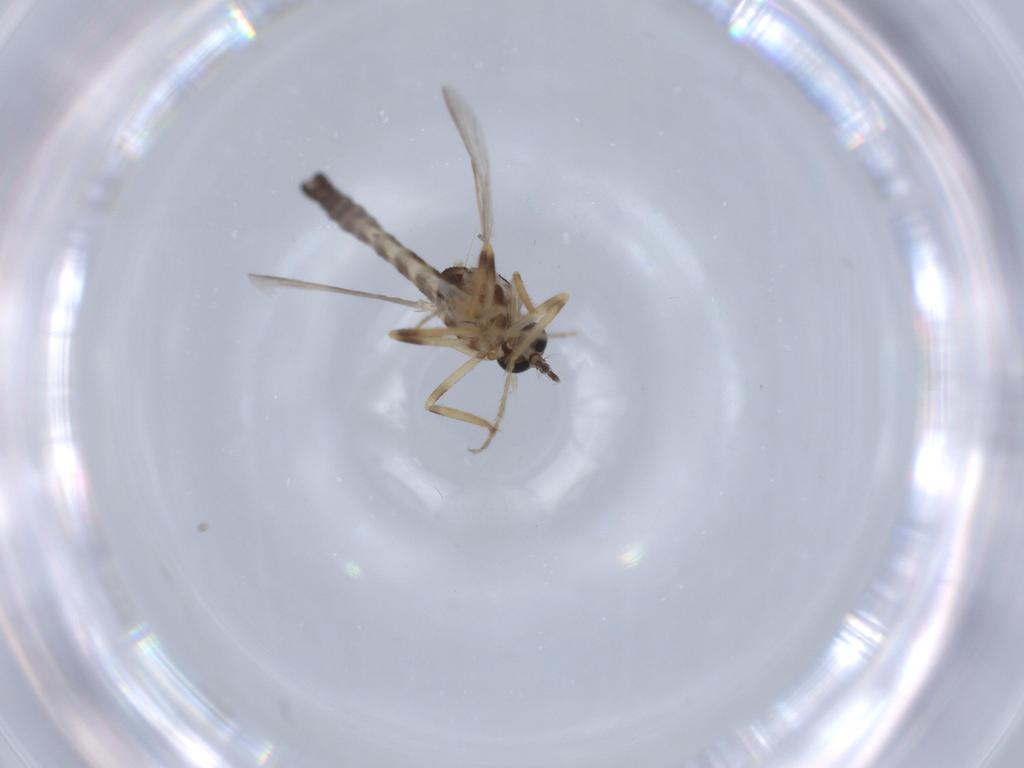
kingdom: Animalia
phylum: Arthropoda
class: Insecta
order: Diptera
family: Ceratopogonidae
